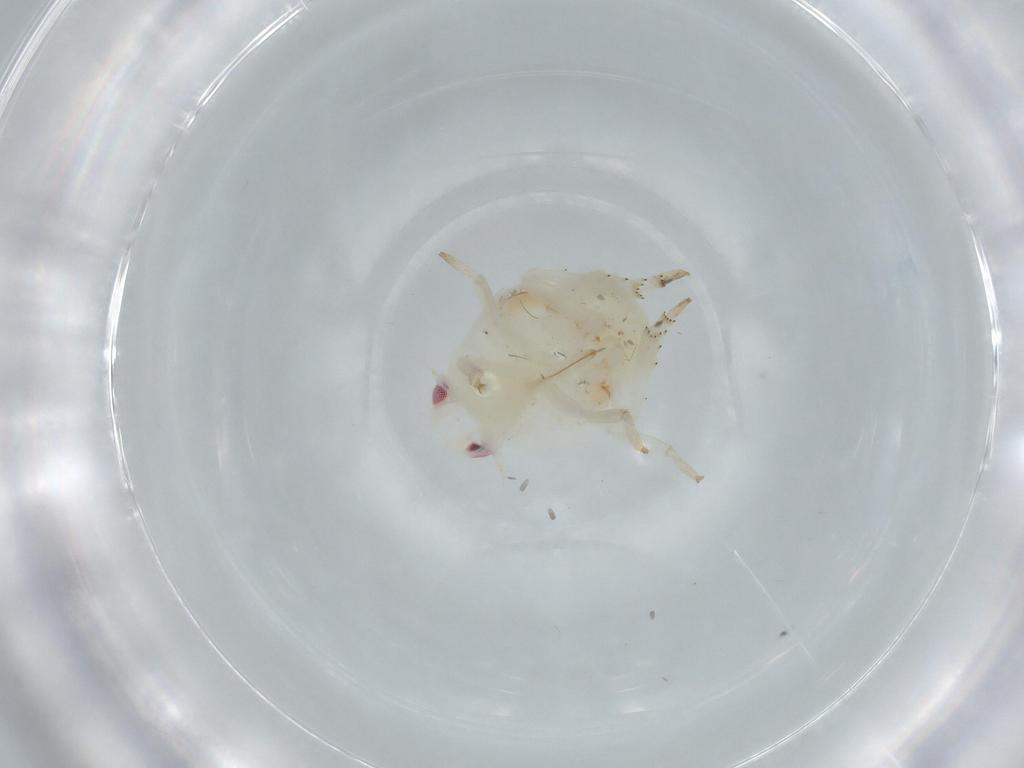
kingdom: Animalia
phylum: Arthropoda
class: Insecta
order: Hemiptera
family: Flatidae
